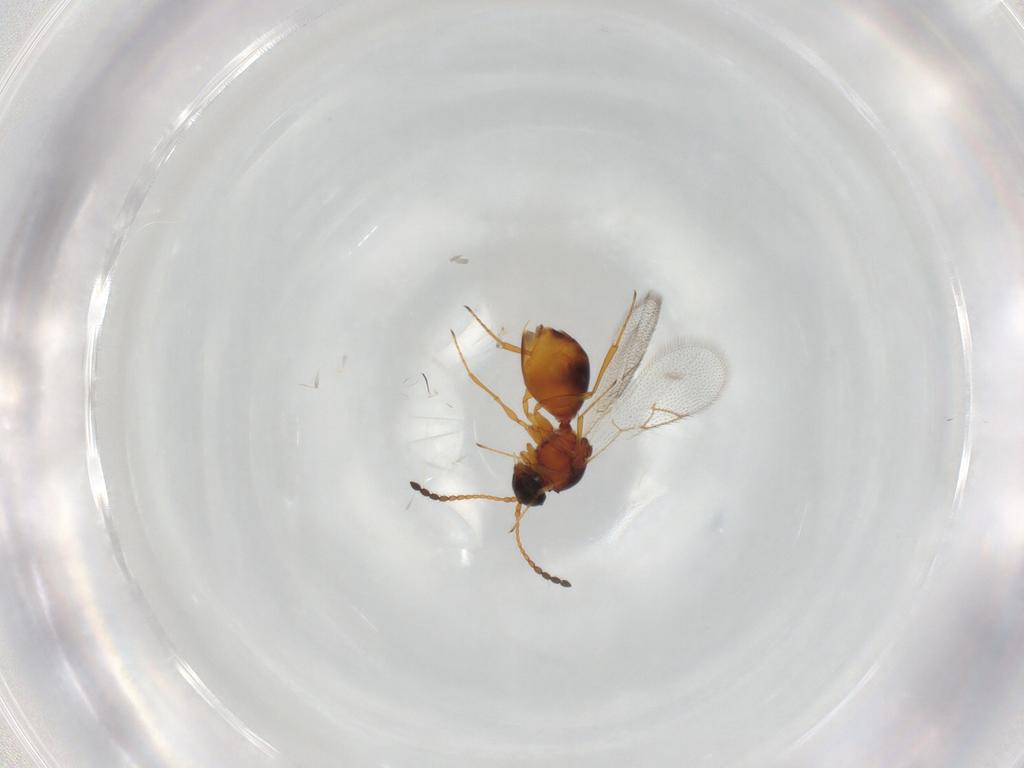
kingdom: Animalia
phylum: Arthropoda
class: Insecta
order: Hymenoptera
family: Figitidae
